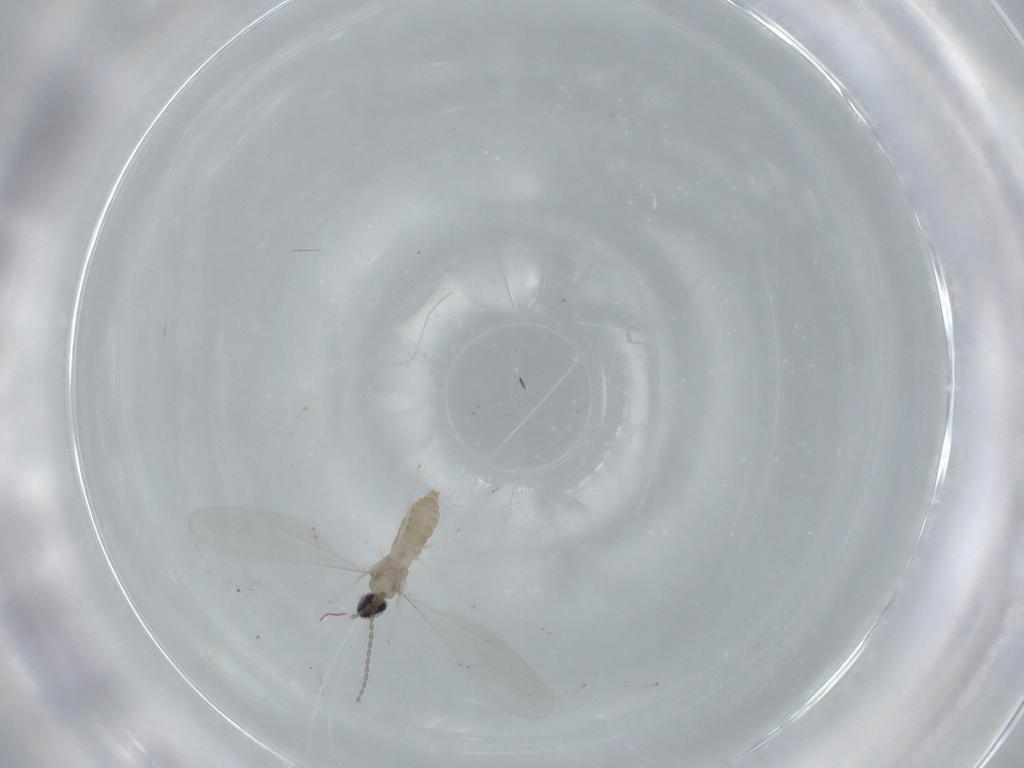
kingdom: Animalia
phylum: Arthropoda
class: Insecta
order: Diptera
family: Cecidomyiidae
